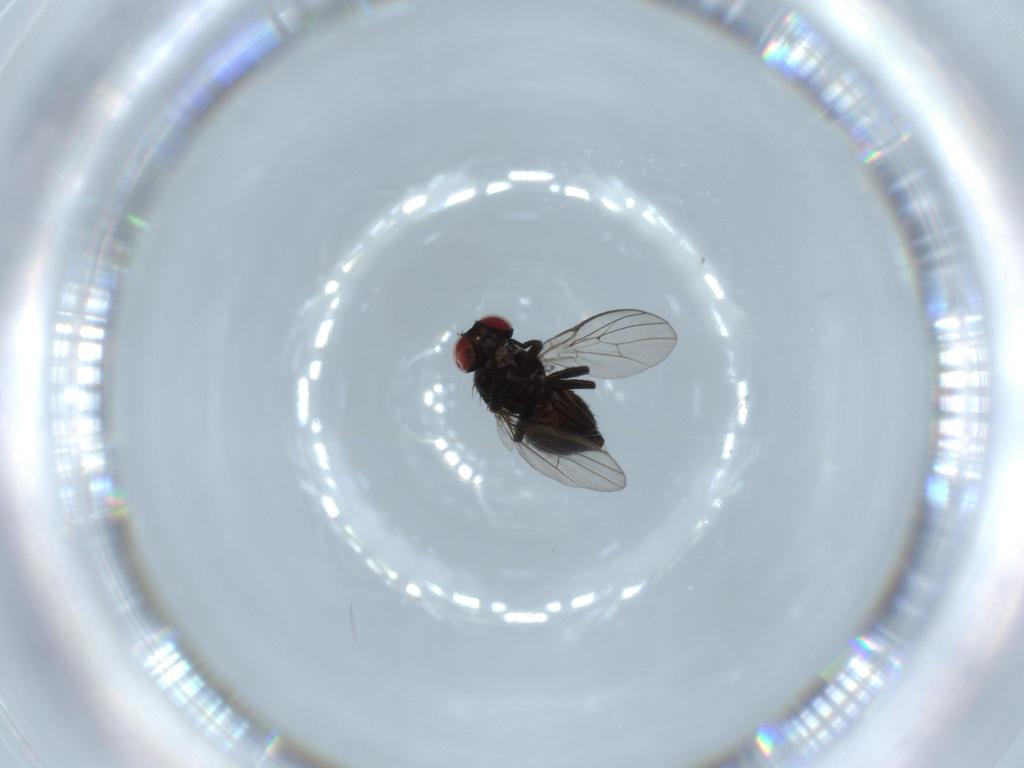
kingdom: Animalia
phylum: Arthropoda
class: Insecta
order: Diptera
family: Agromyzidae
